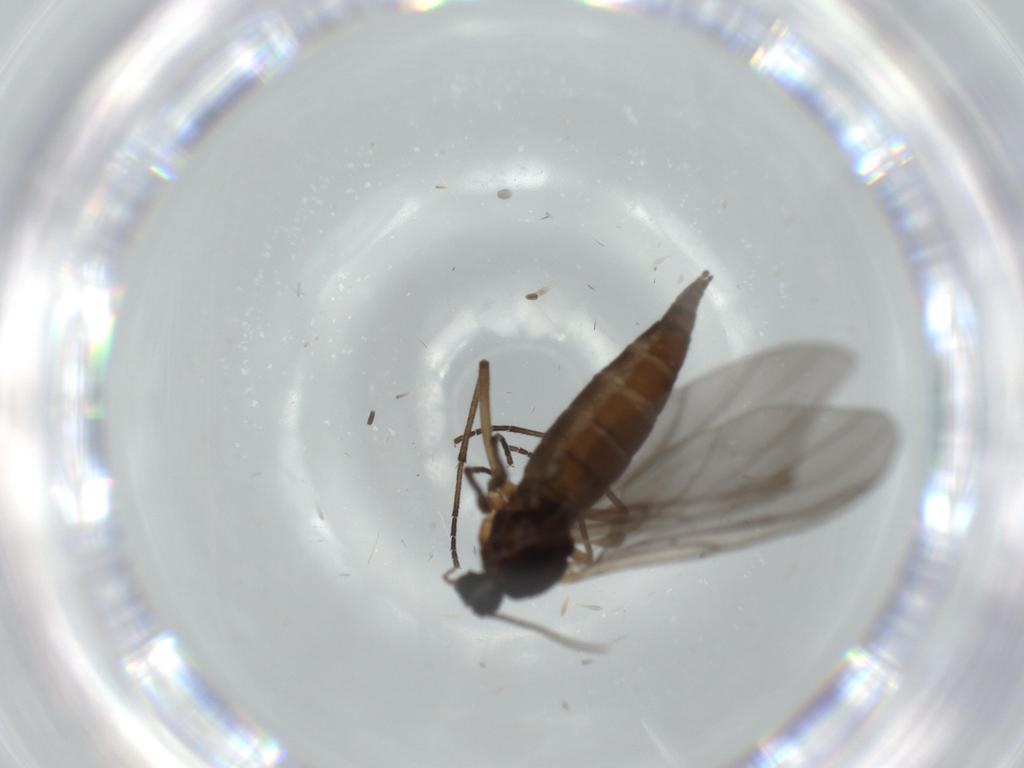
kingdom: Animalia
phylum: Arthropoda
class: Insecta
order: Diptera
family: Sciaridae
